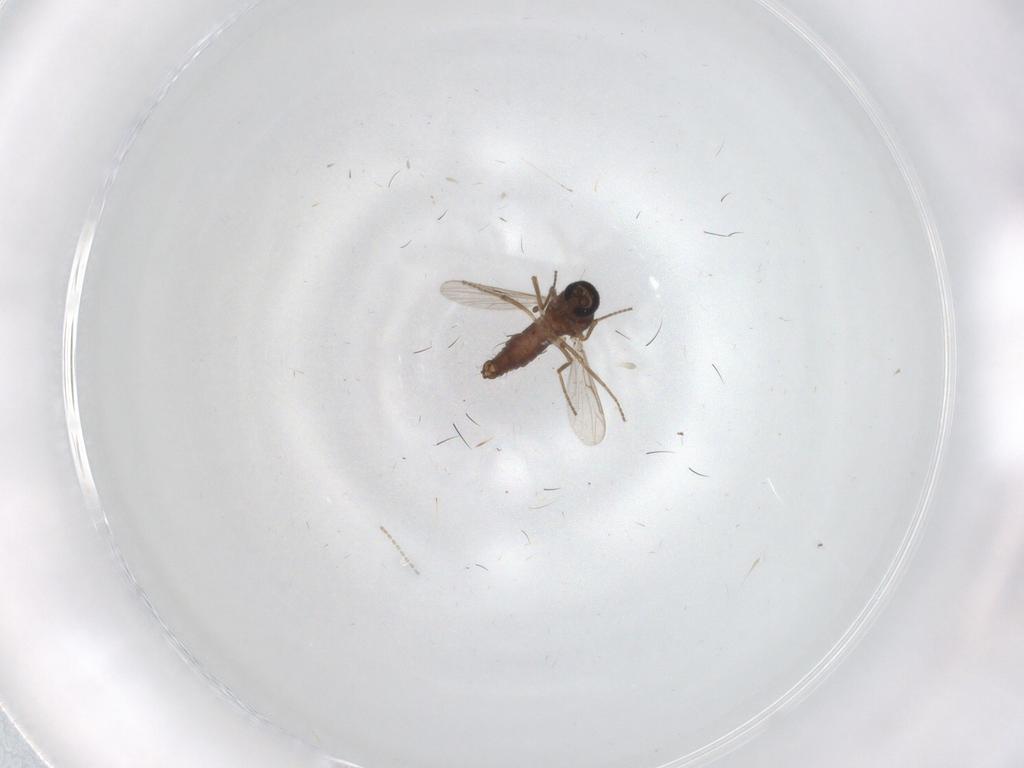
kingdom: Animalia
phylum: Arthropoda
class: Insecta
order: Diptera
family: Ceratopogonidae
